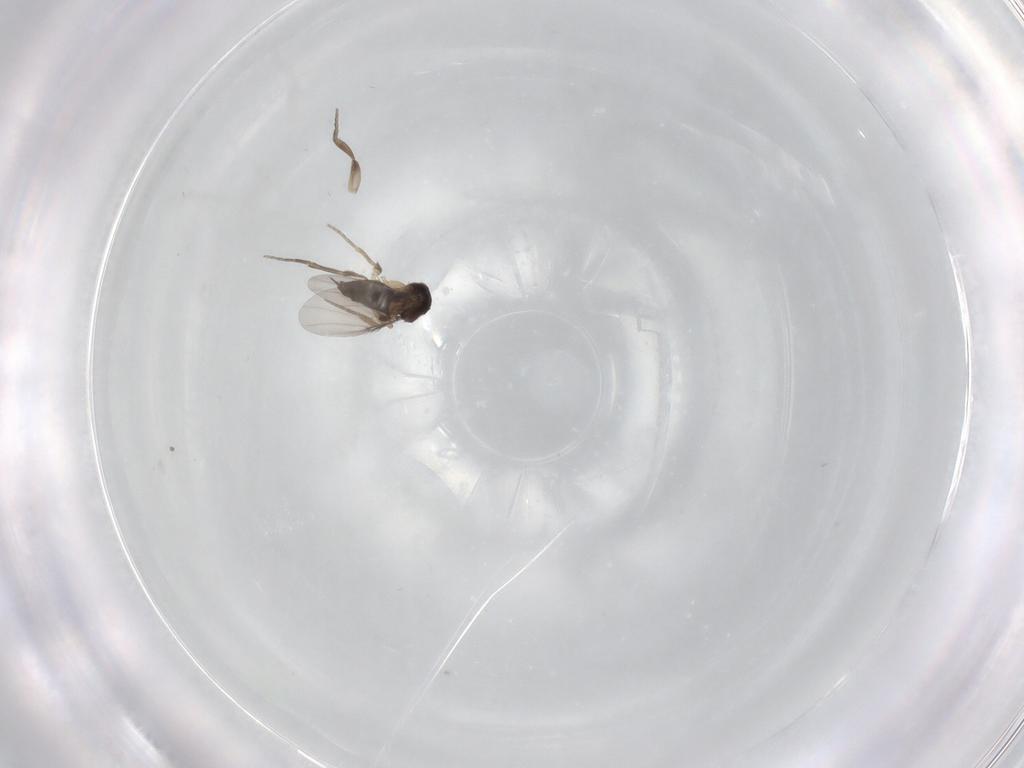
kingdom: Animalia
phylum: Arthropoda
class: Insecta
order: Diptera
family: Phoridae
